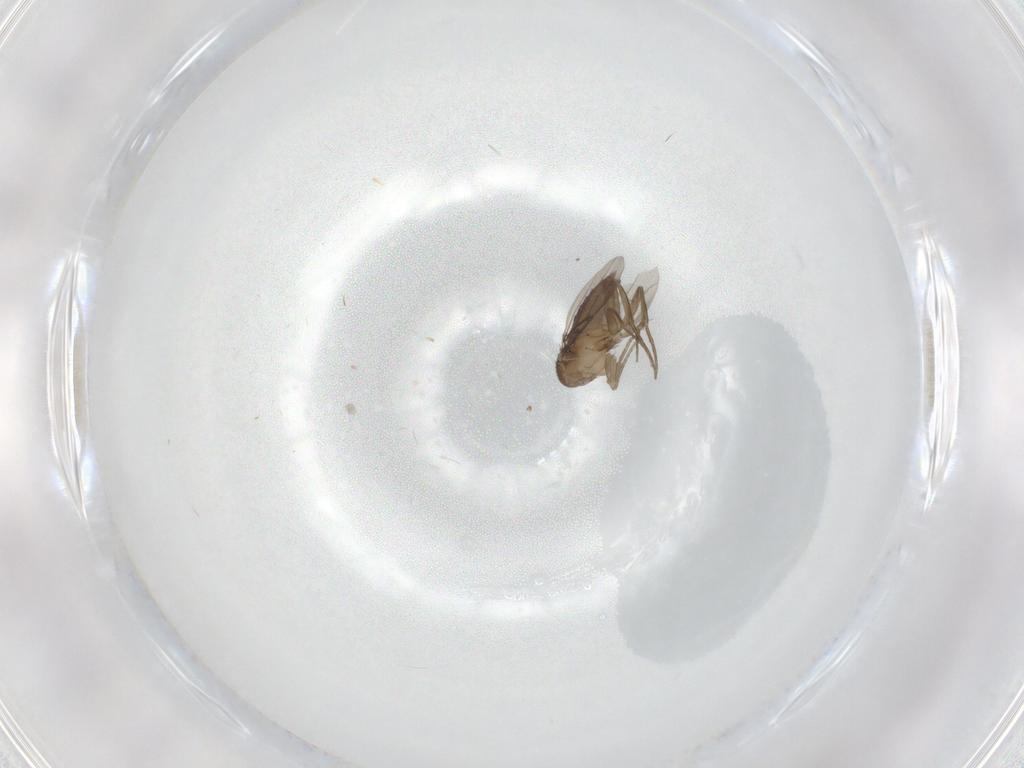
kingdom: Animalia
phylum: Arthropoda
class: Insecta
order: Diptera
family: Phoridae
